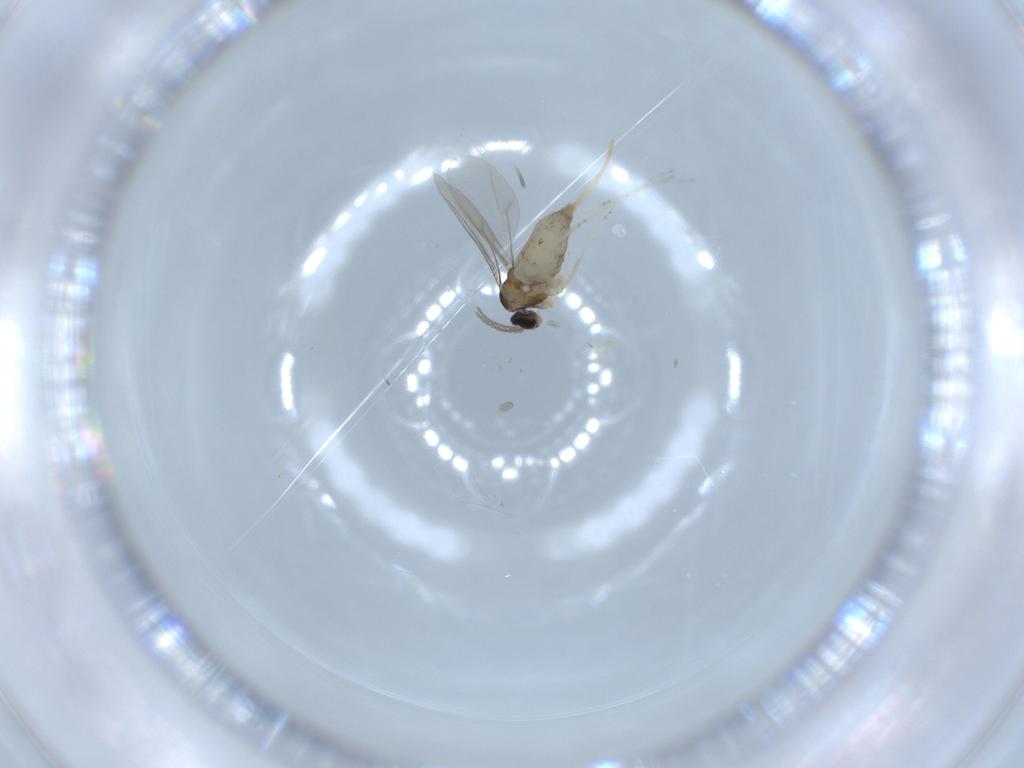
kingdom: Animalia
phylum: Arthropoda
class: Insecta
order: Diptera
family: Cecidomyiidae
